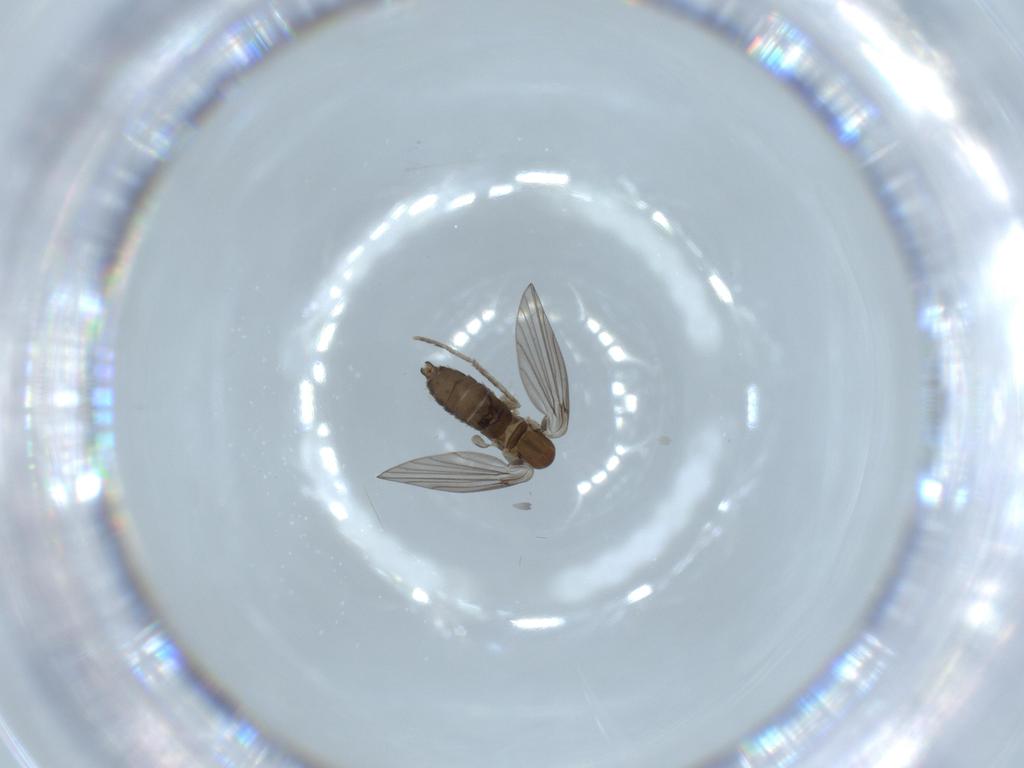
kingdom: Animalia
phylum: Arthropoda
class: Insecta
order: Diptera
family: Psychodidae
